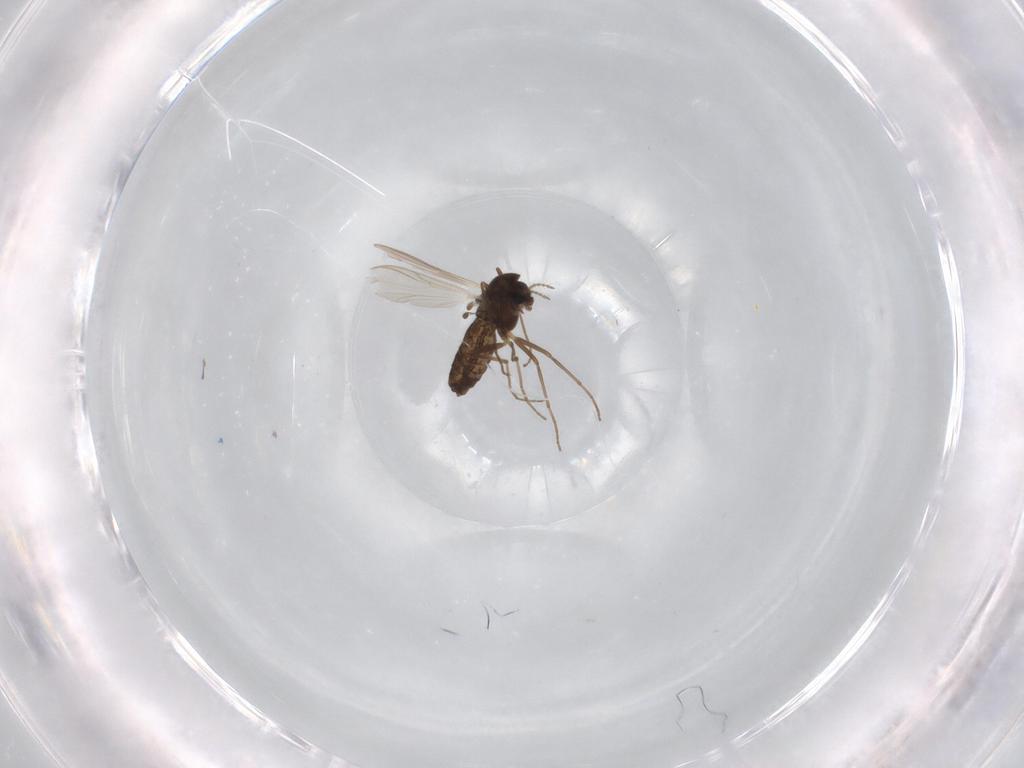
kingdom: Animalia
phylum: Arthropoda
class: Insecta
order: Diptera
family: Chironomidae
